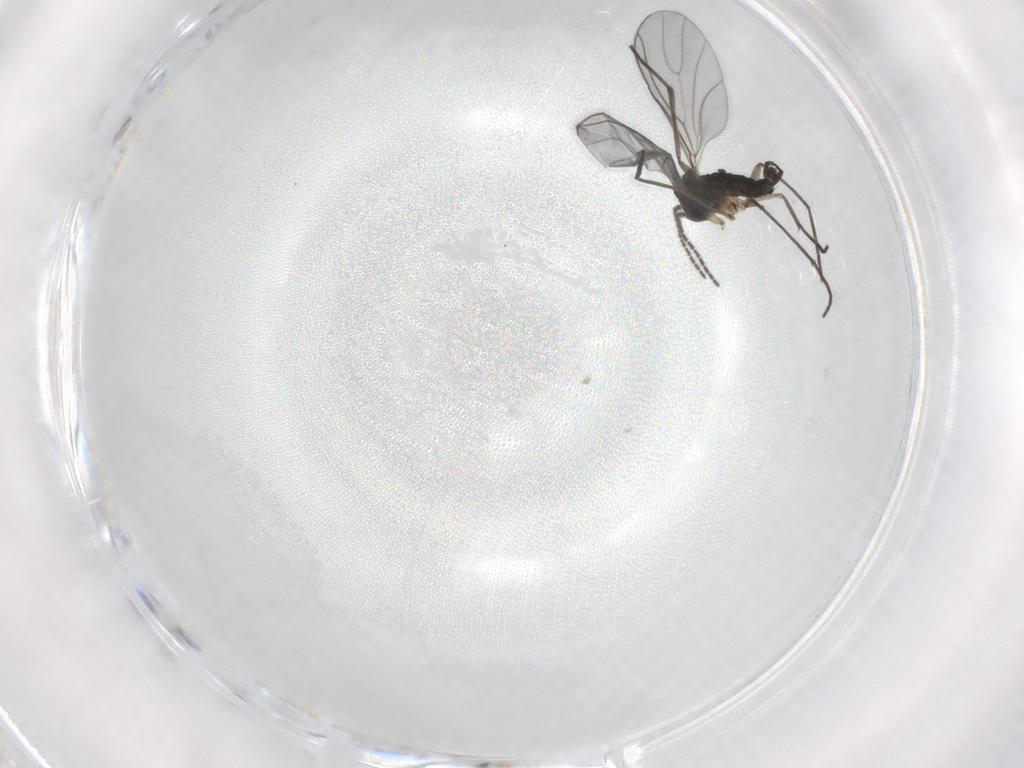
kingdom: Animalia
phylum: Arthropoda
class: Insecta
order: Diptera
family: Sciaridae
